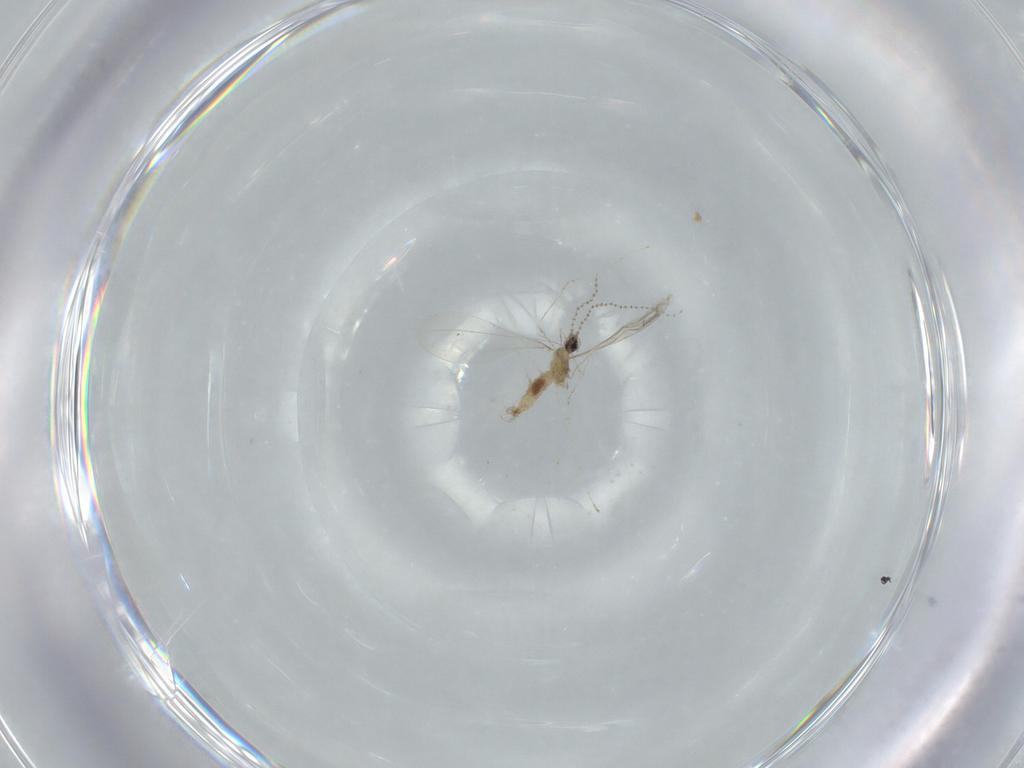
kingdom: Animalia
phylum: Arthropoda
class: Insecta
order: Diptera
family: Cecidomyiidae
